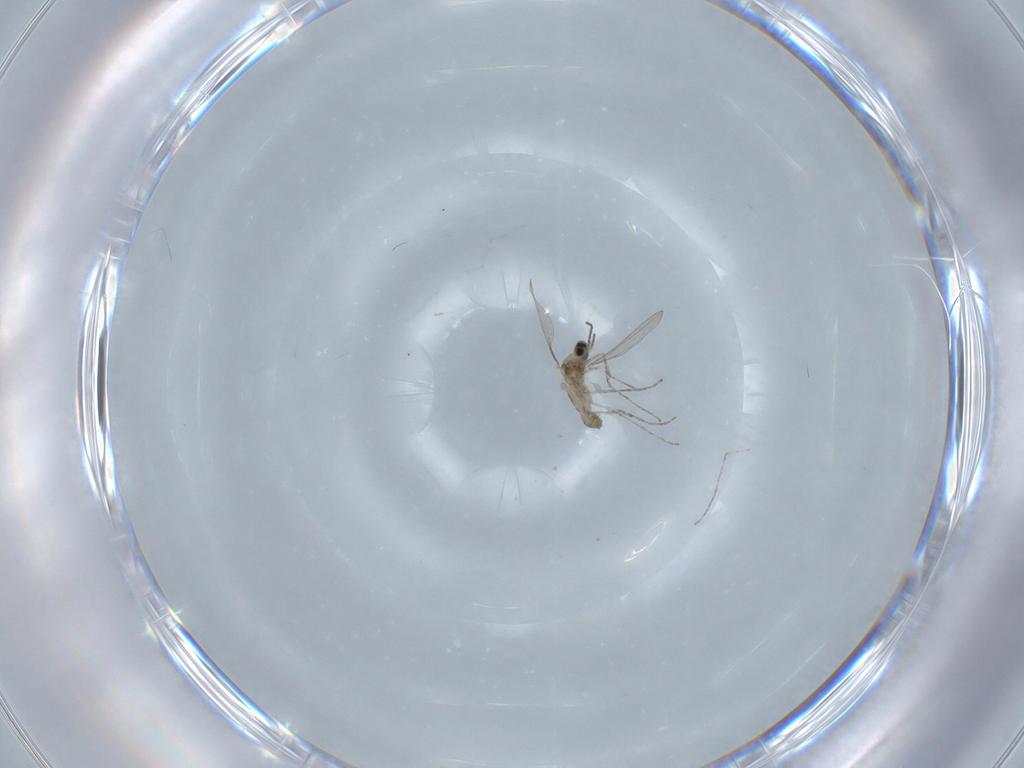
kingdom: Animalia
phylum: Arthropoda
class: Insecta
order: Diptera
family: Cecidomyiidae
